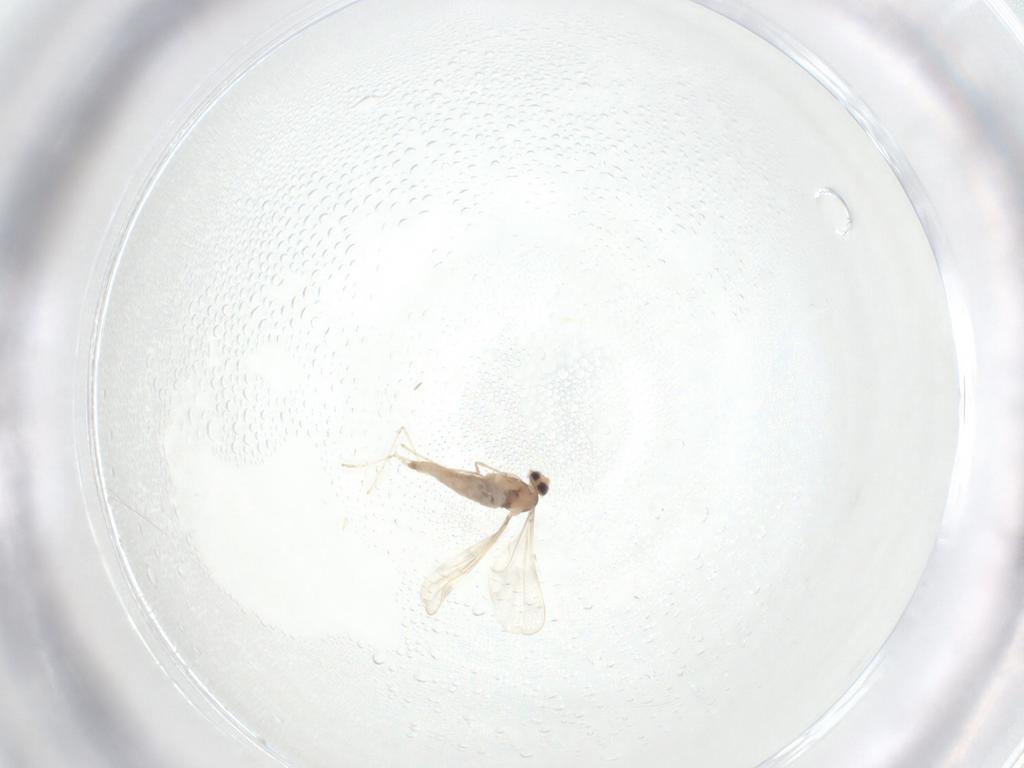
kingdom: Animalia
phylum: Arthropoda
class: Insecta
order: Diptera
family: Cecidomyiidae
